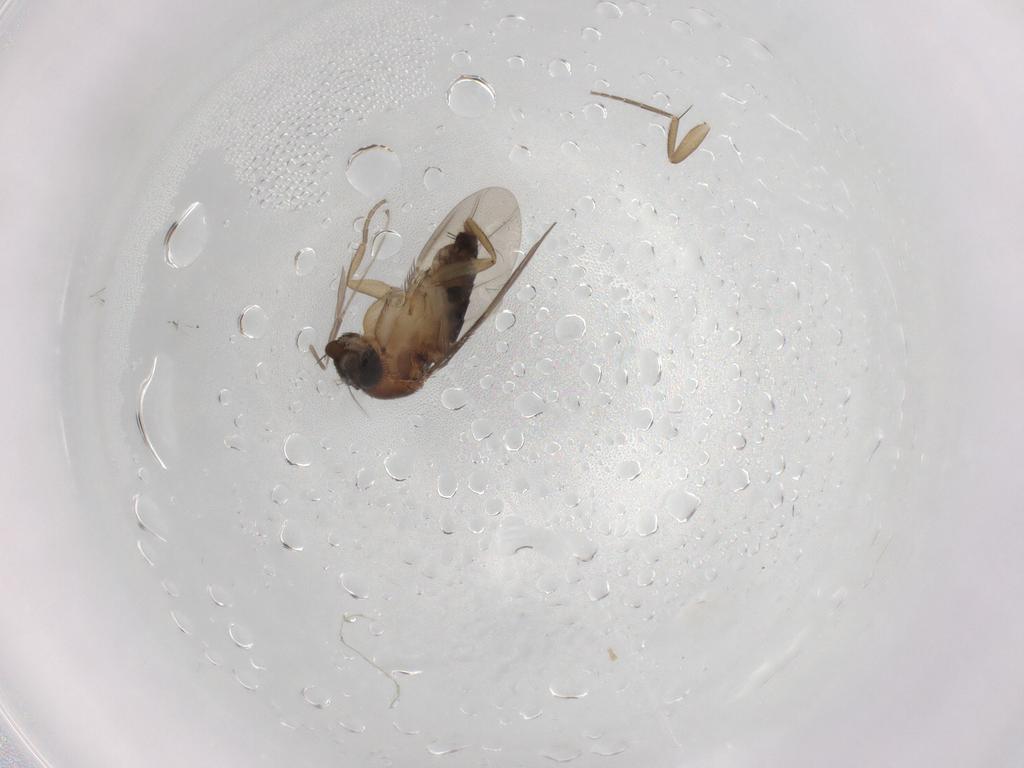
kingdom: Animalia
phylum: Arthropoda
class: Insecta
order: Diptera
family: Phoridae
